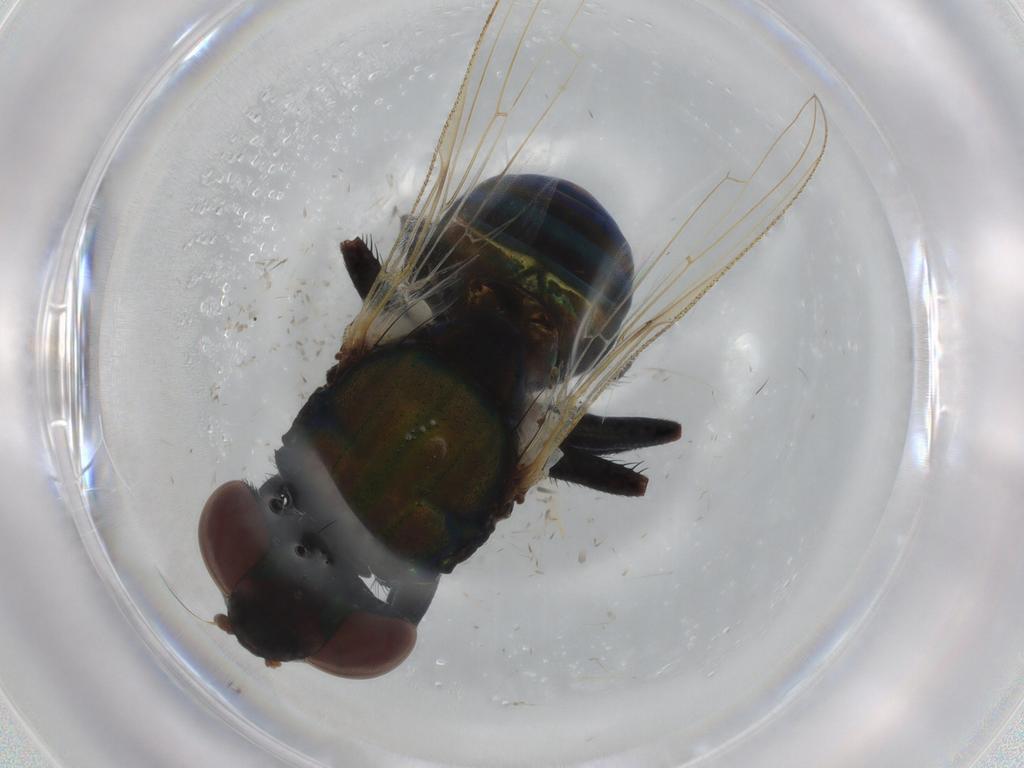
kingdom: Animalia
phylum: Arthropoda
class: Insecta
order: Diptera
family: Ulidiidae
